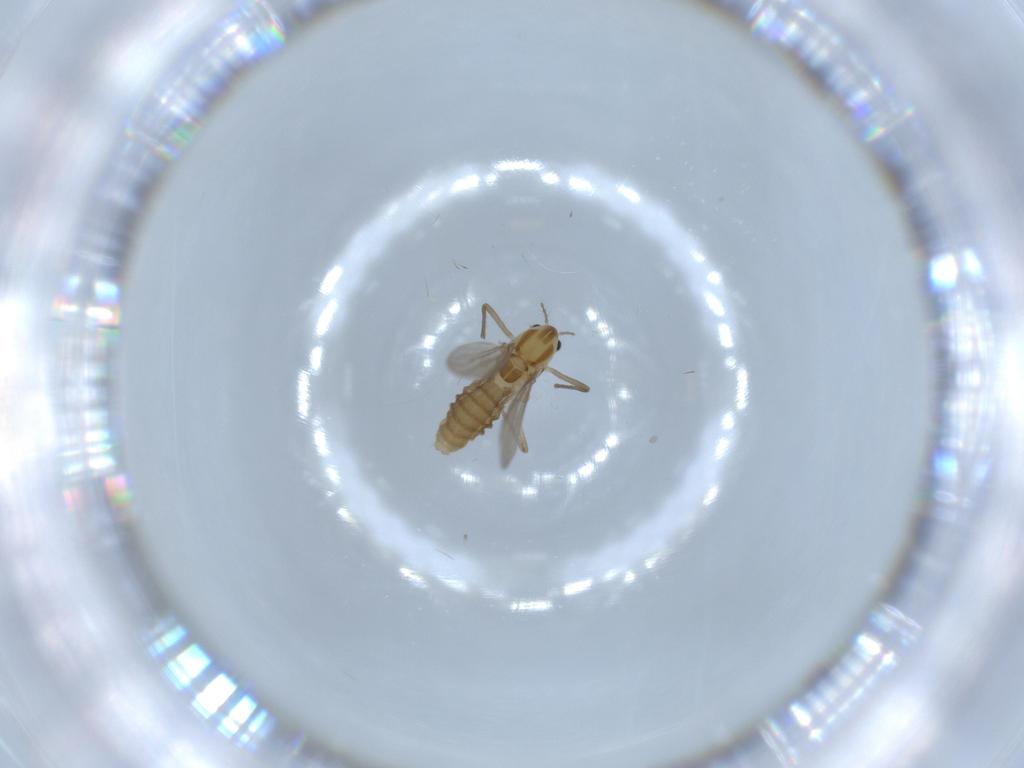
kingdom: Animalia
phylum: Arthropoda
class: Insecta
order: Diptera
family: Chironomidae
